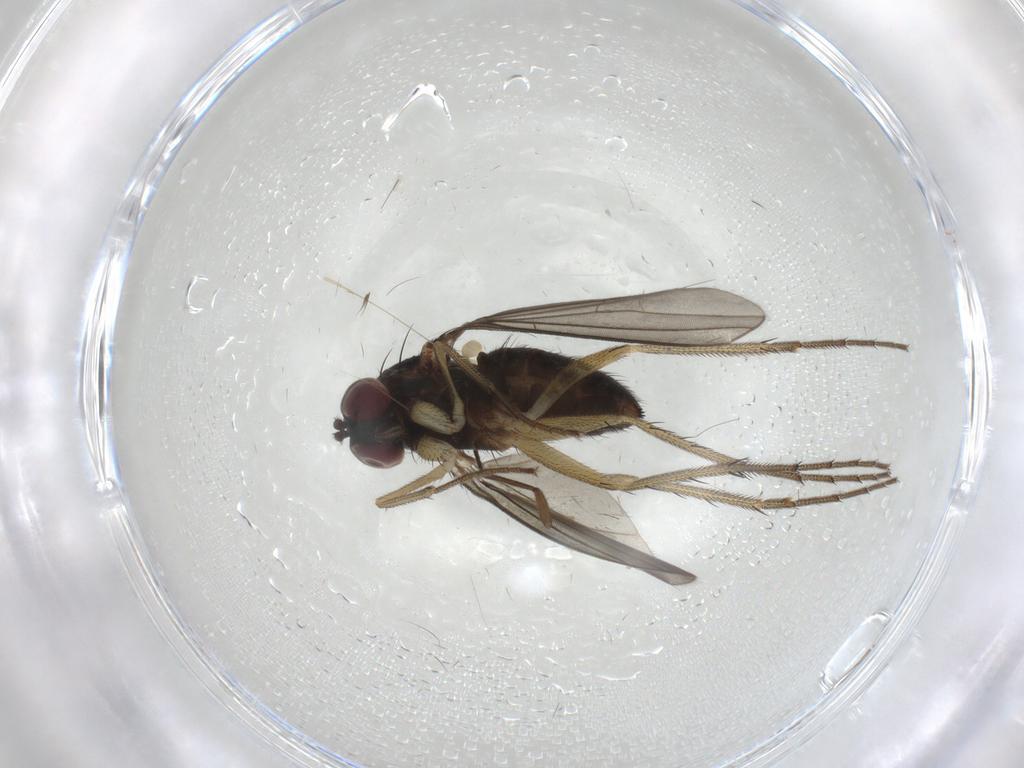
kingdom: Animalia
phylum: Arthropoda
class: Insecta
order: Diptera
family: Dolichopodidae
